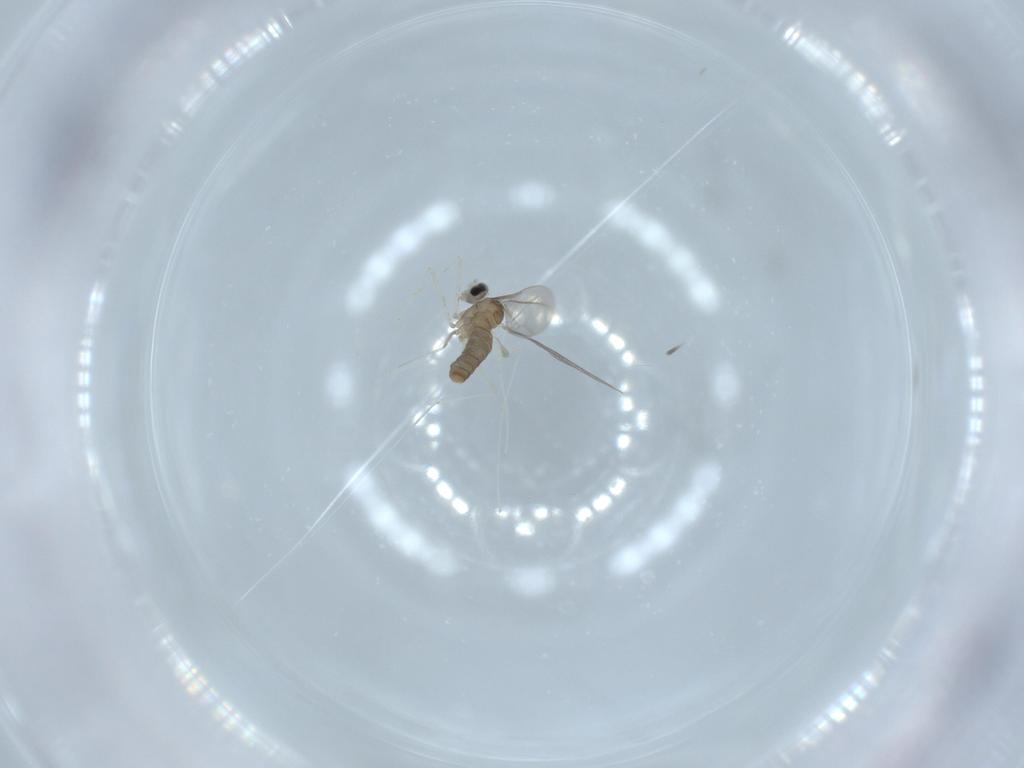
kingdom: Animalia
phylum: Arthropoda
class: Insecta
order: Diptera
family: Cecidomyiidae
